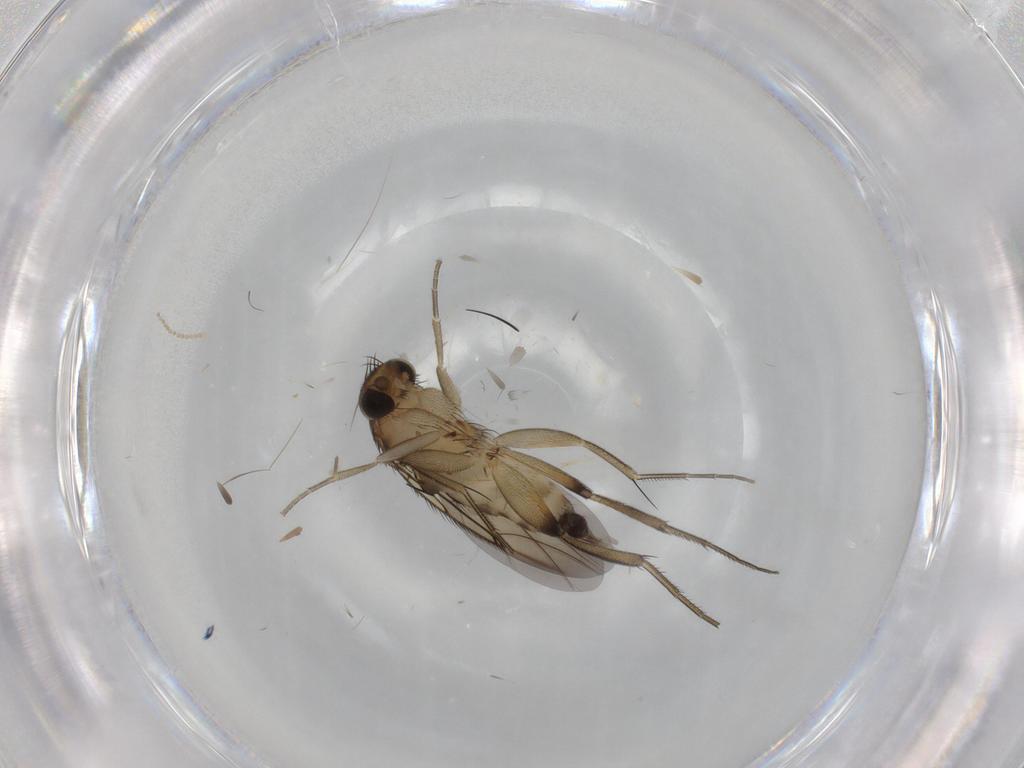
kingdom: Animalia
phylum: Arthropoda
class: Insecta
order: Diptera
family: Phoridae
